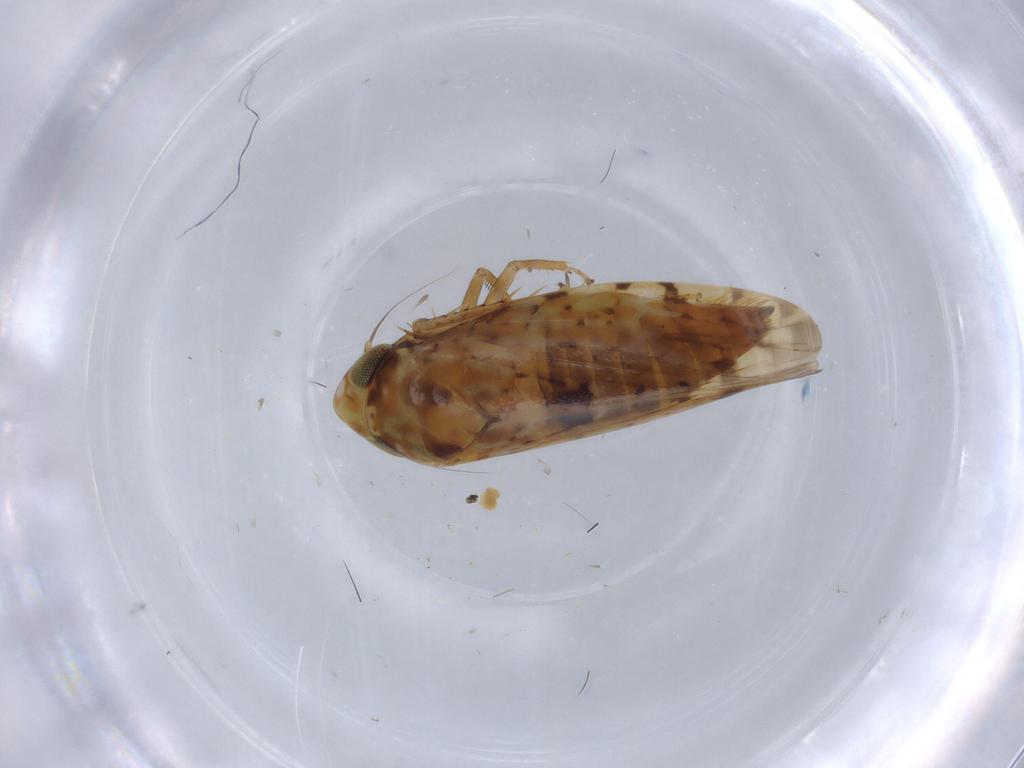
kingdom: Animalia
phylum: Arthropoda
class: Insecta
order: Hemiptera
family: Cicadellidae
